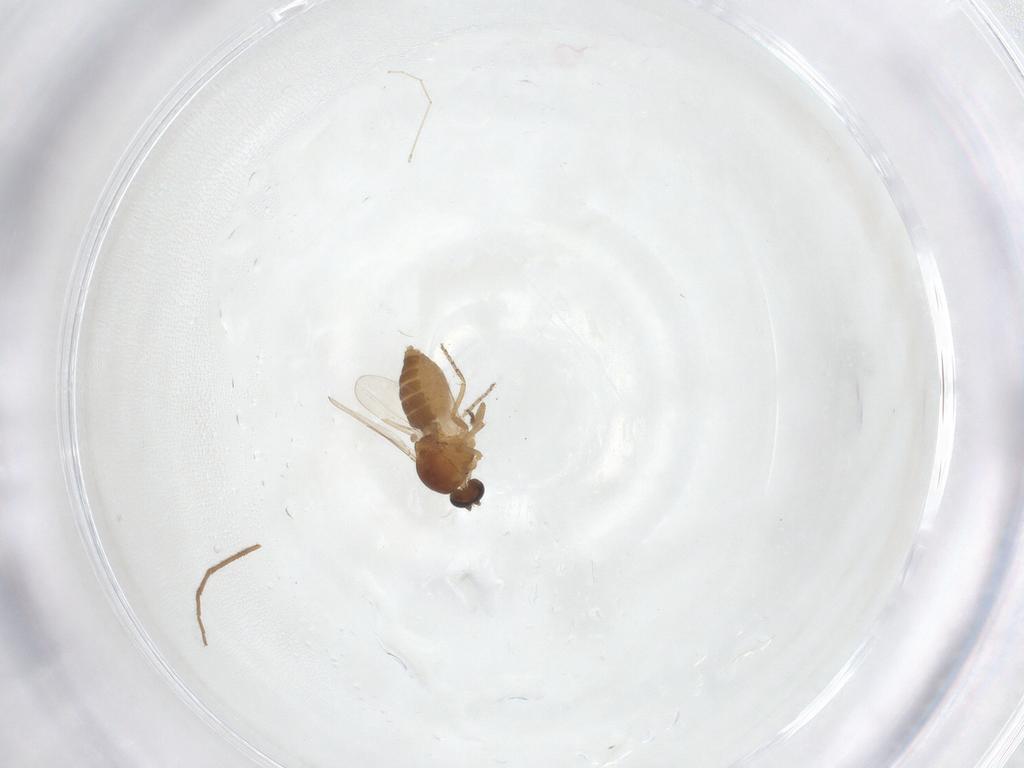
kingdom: Animalia
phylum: Arthropoda
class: Insecta
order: Diptera
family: Ceratopogonidae
